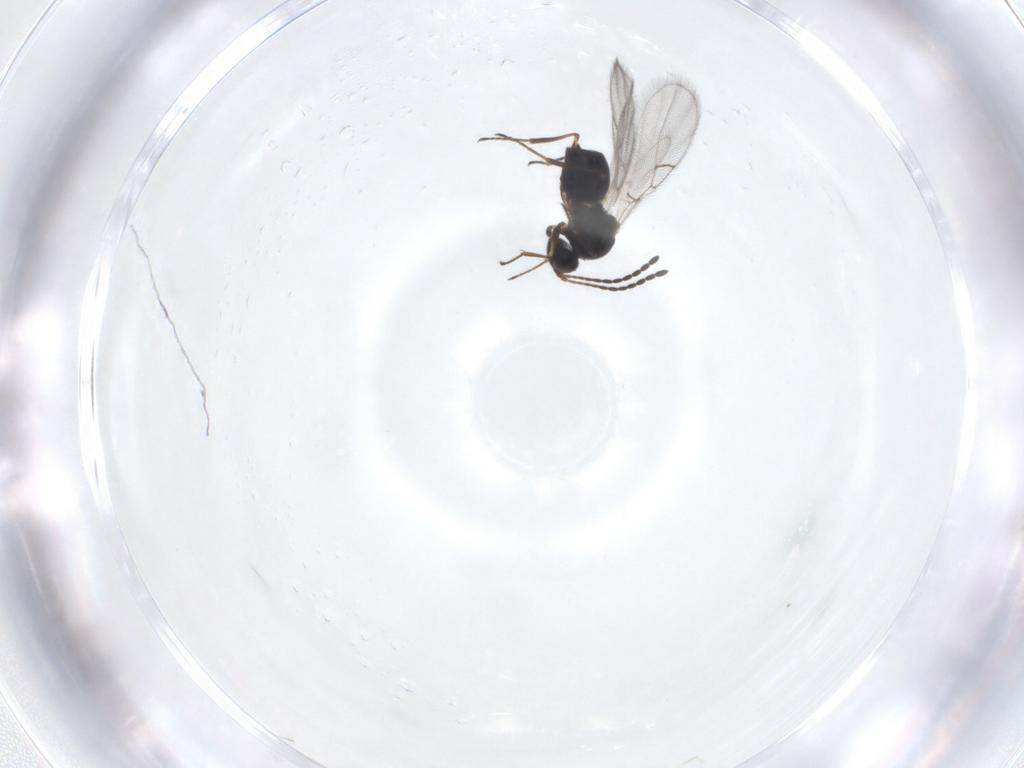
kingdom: Animalia
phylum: Arthropoda
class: Insecta
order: Hymenoptera
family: Figitidae
